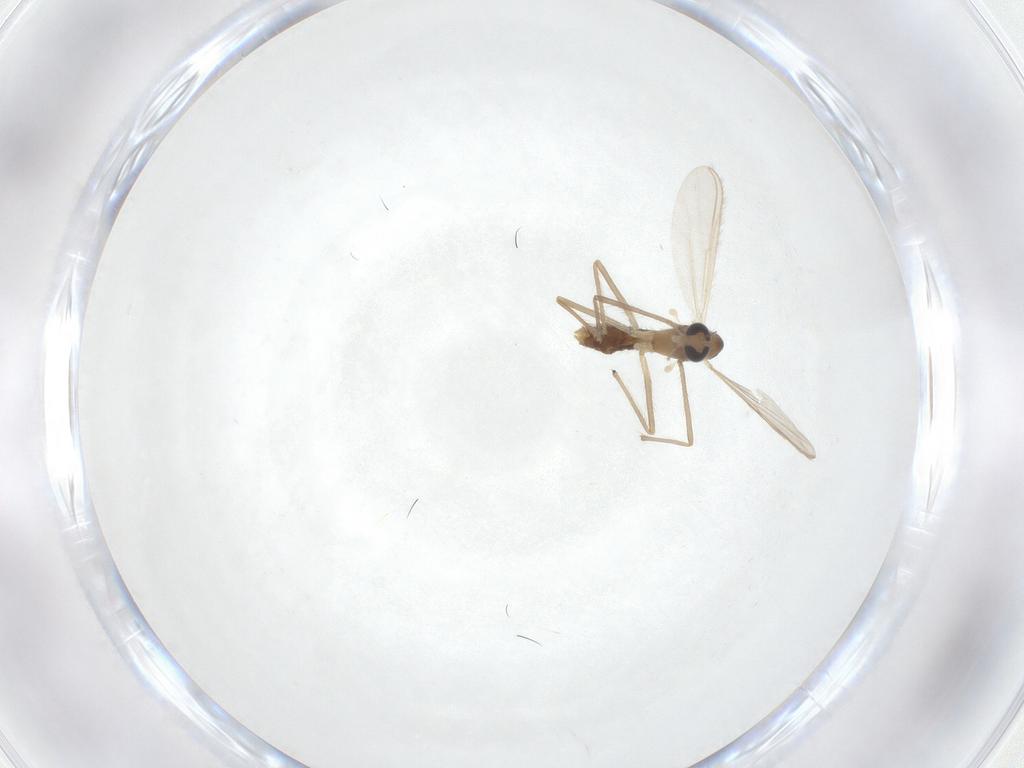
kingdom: Animalia
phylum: Arthropoda
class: Insecta
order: Diptera
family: Chironomidae
